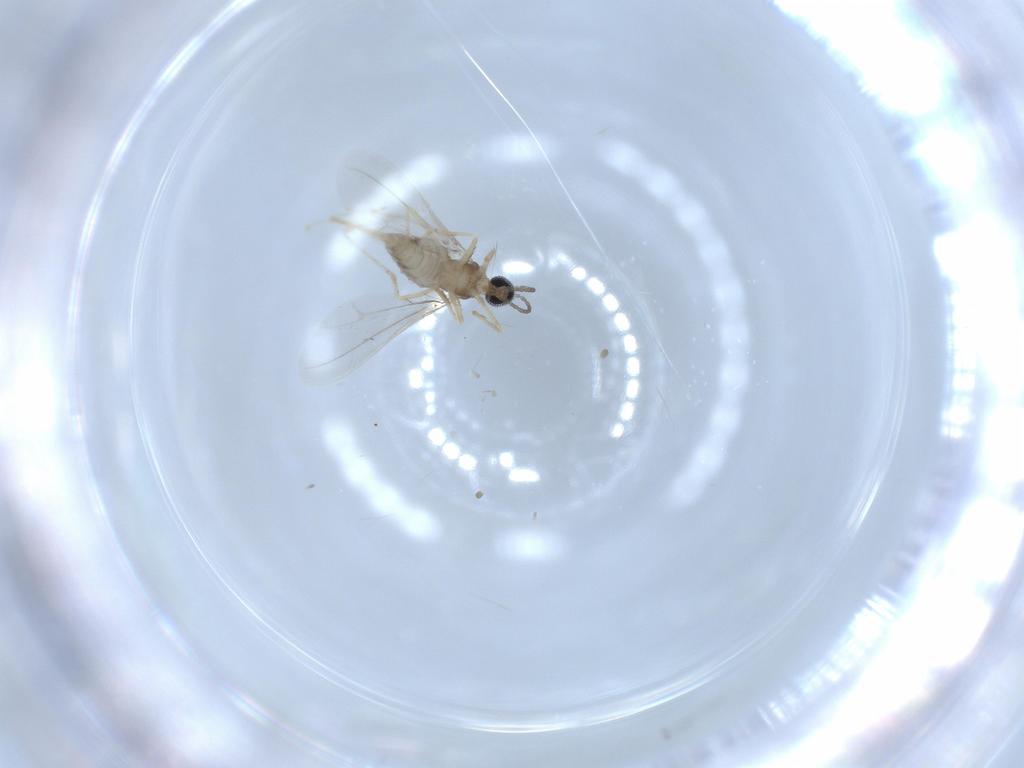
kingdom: Animalia
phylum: Arthropoda
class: Insecta
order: Diptera
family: Cecidomyiidae
